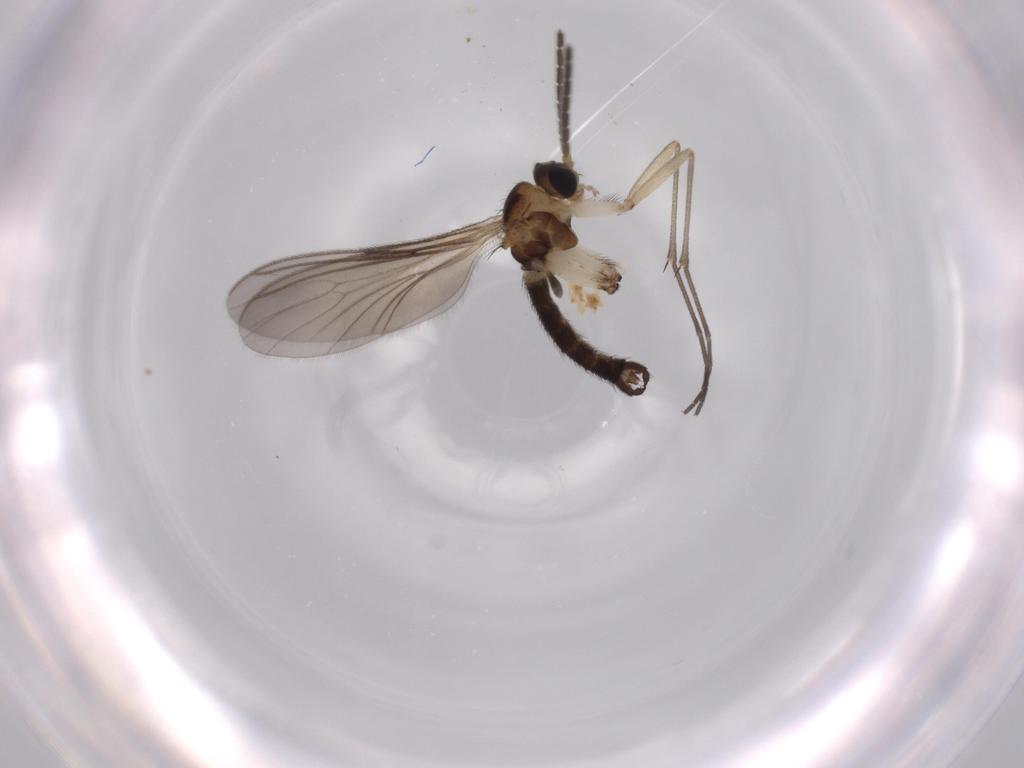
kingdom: Animalia
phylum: Arthropoda
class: Insecta
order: Diptera
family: Sciaridae
